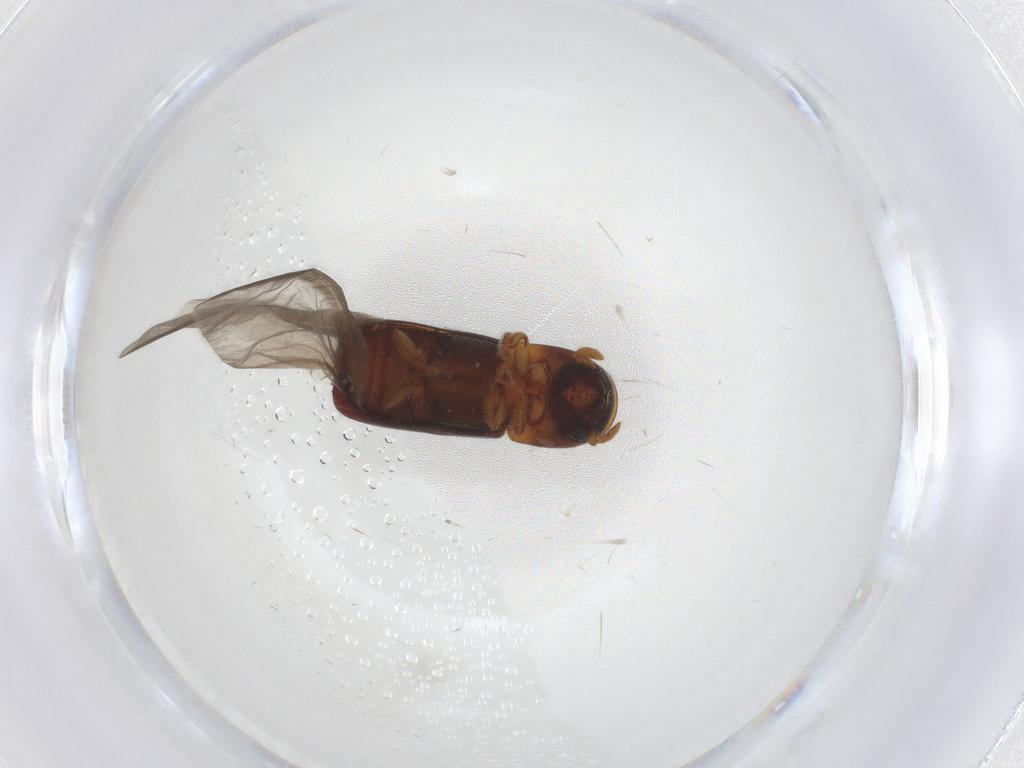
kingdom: Animalia
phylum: Arthropoda
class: Insecta
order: Coleoptera
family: Curculionidae
